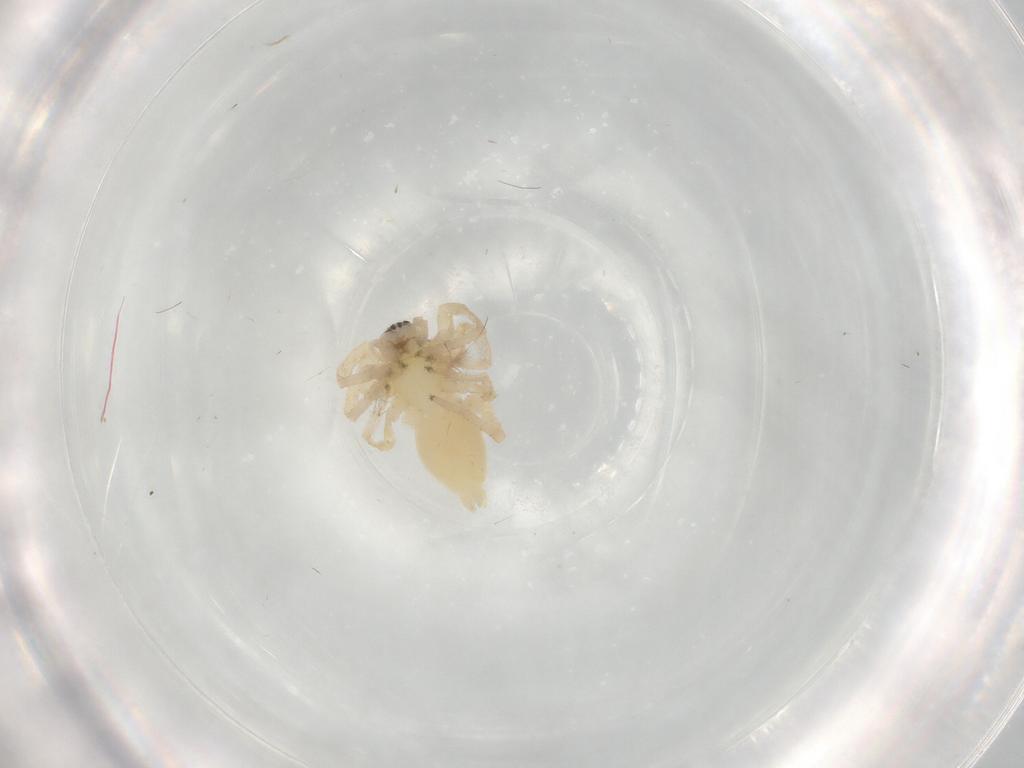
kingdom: Animalia
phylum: Arthropoda
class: Arachnida
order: Araneae
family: Anyphaenidae
